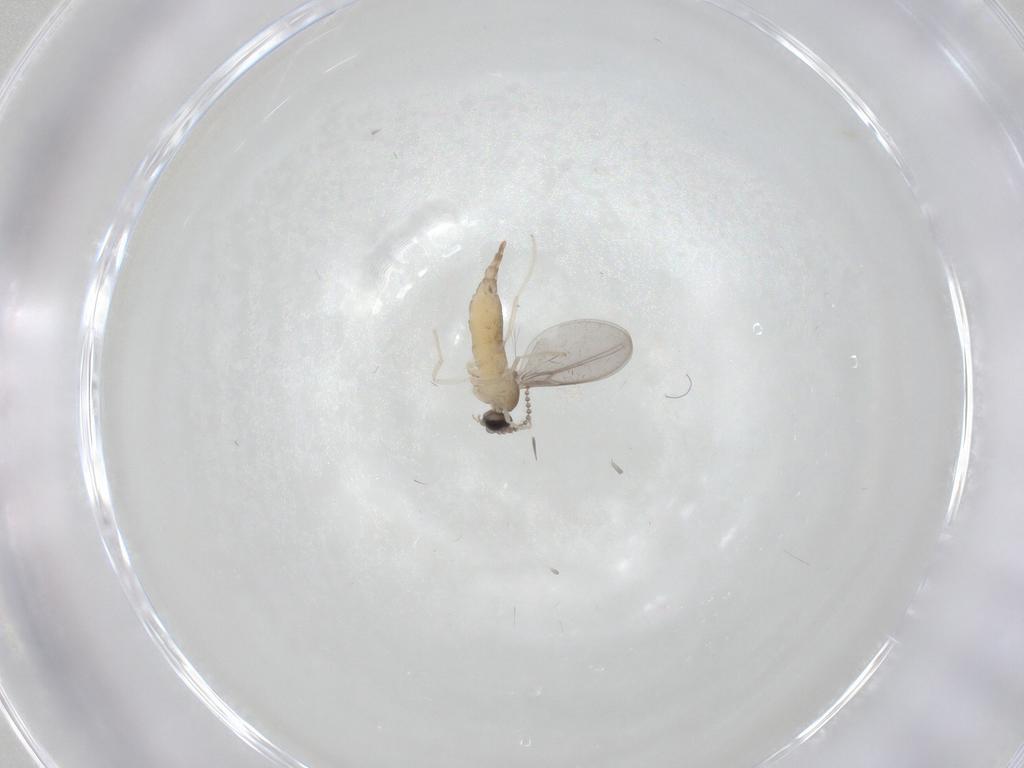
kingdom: Animalia
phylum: Arthropoda
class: Insecta
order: Diptera
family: Cecidomyiidae
